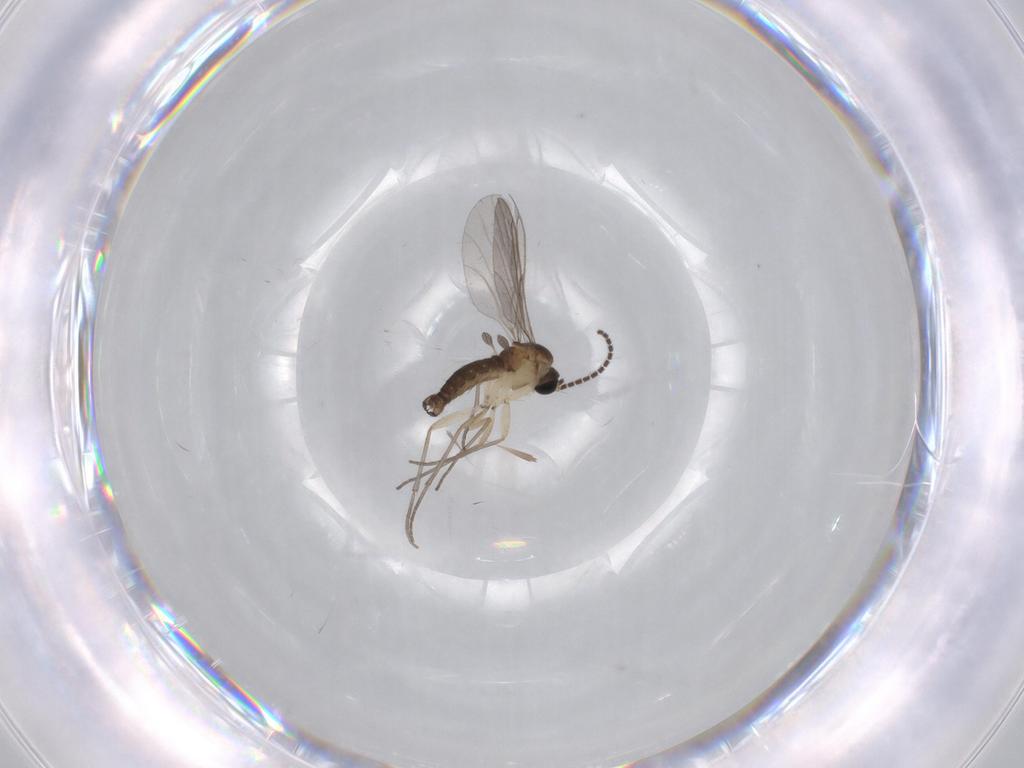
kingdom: Animalia
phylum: Arthropoda
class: Insecta
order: Diptera
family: Sciaridae
